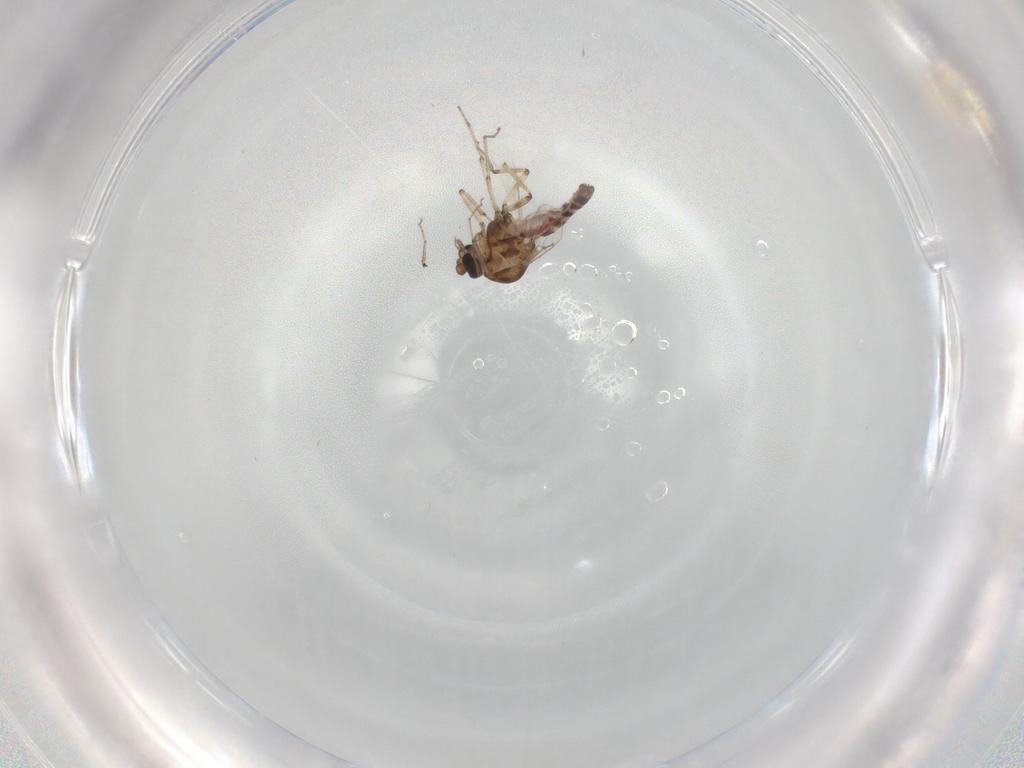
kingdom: Animalia
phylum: Arthropoda
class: Insecta
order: Diptera
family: Ceratopogonidae
